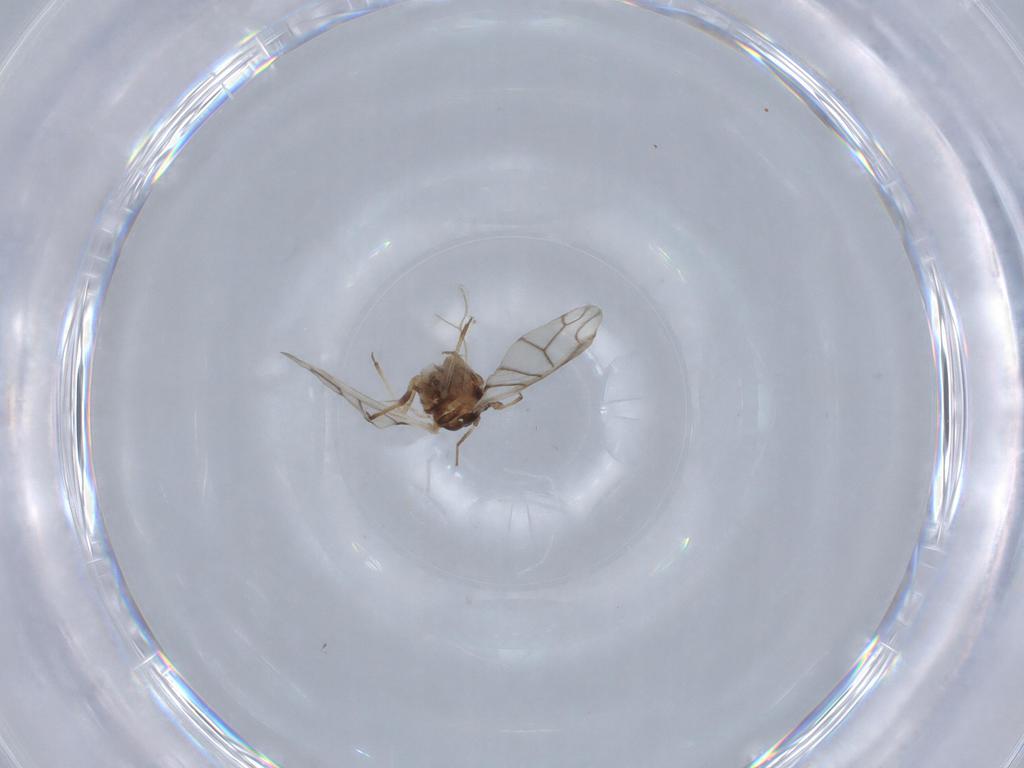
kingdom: Animalia
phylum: Arthropoda
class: Insecta
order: Hemiptera
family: Aphididae
